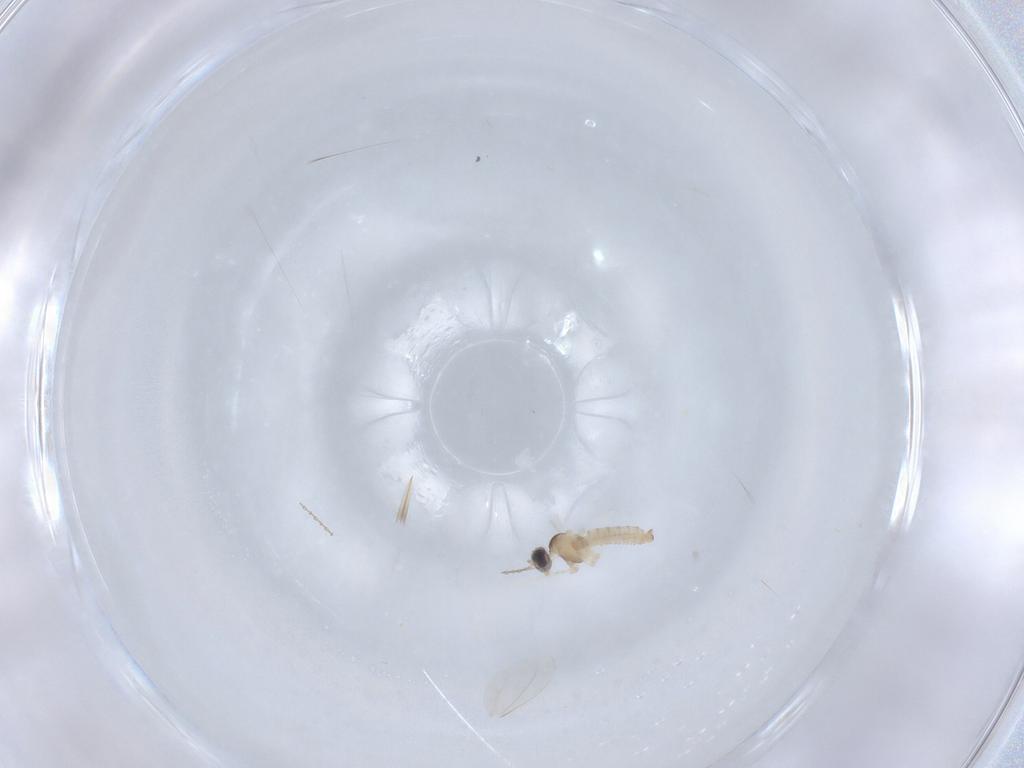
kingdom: Animalia
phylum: Arthropoda
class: Insecta
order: Diptera
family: Cecidomyiidae
